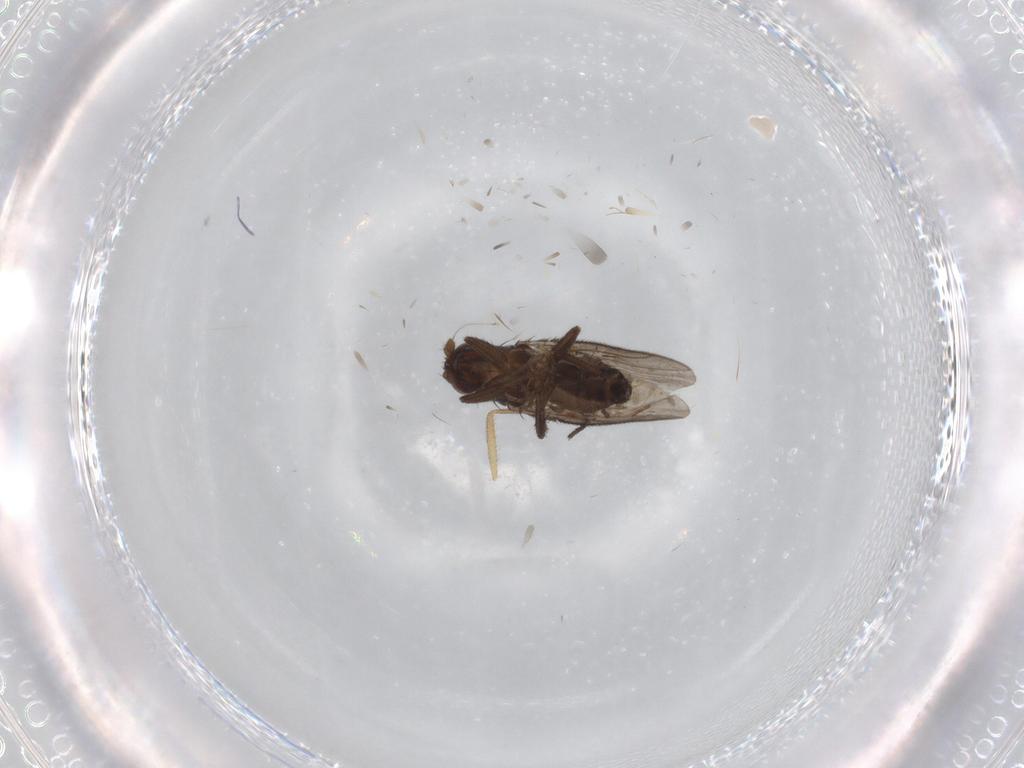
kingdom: Animalia
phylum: Arthropoda
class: Insecta
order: Diptera
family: Sphaeroceridae
